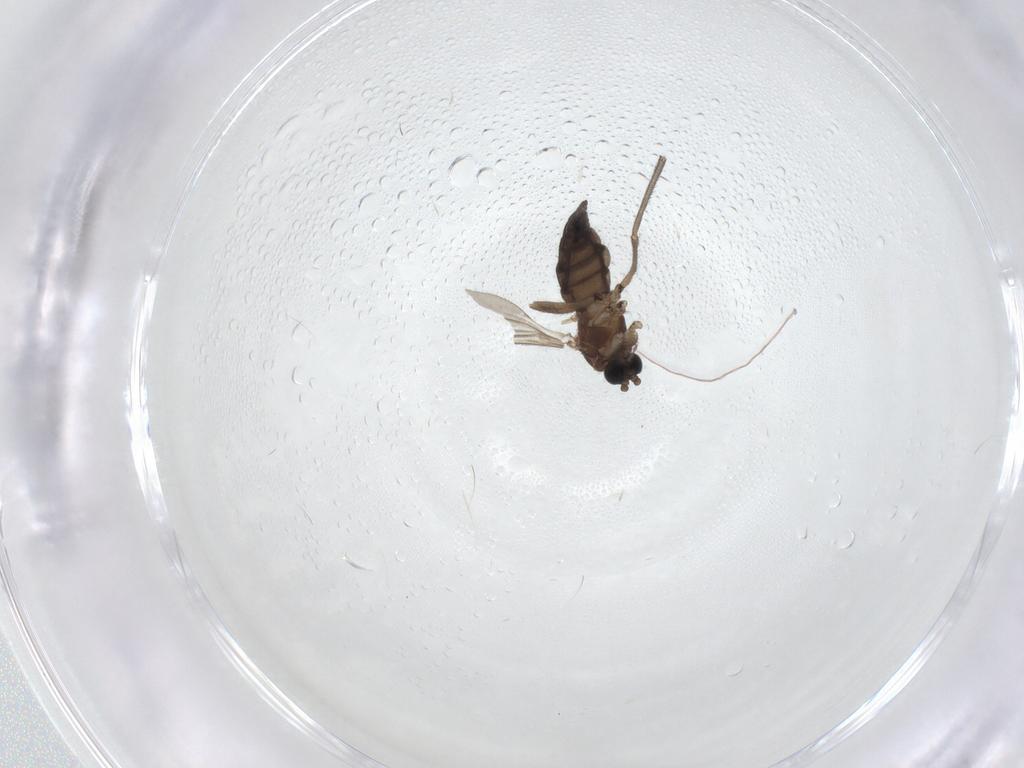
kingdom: Animalia
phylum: Arthropoda
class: Insecta
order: Diptera
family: Sciaridae
